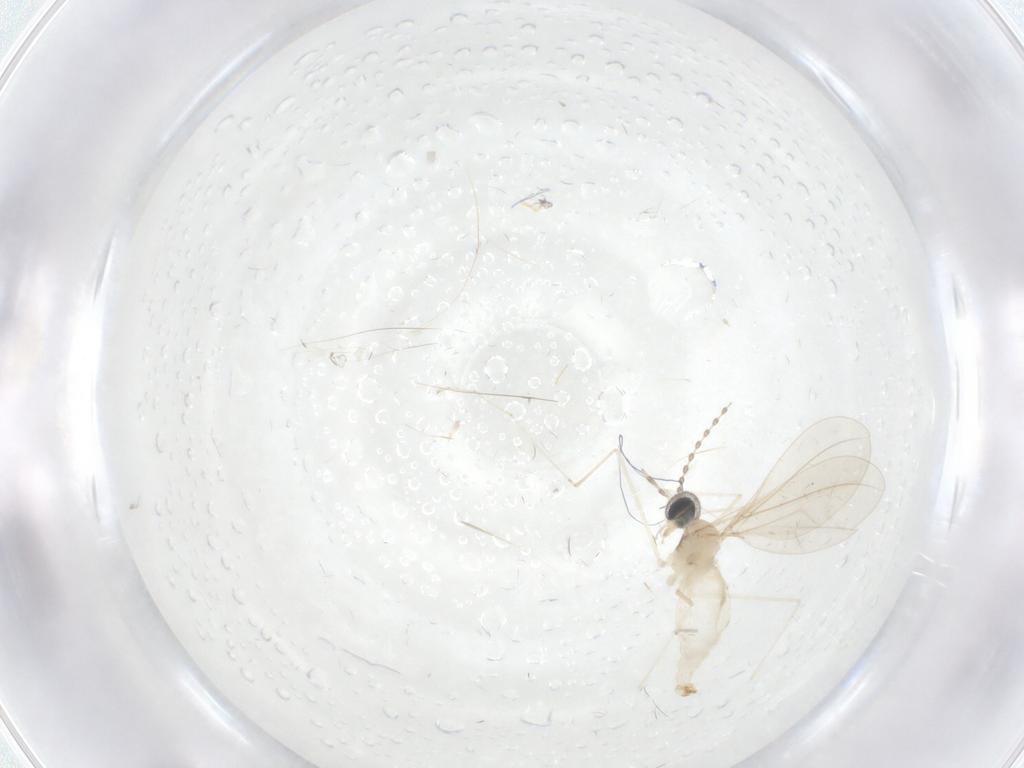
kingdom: Animalia
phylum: Arthropoda
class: Insecta
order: Diptera
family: Cecidomyiidae
